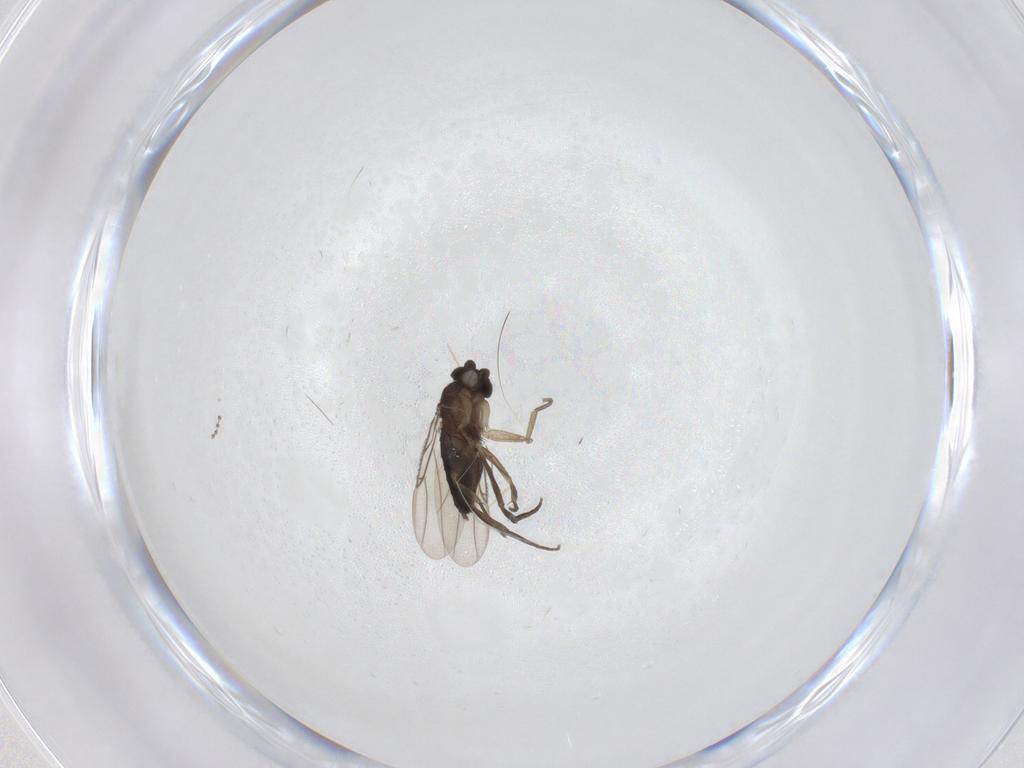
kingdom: Animalia
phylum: Arthropoda
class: Insecta
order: Diptera
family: Phoridae
